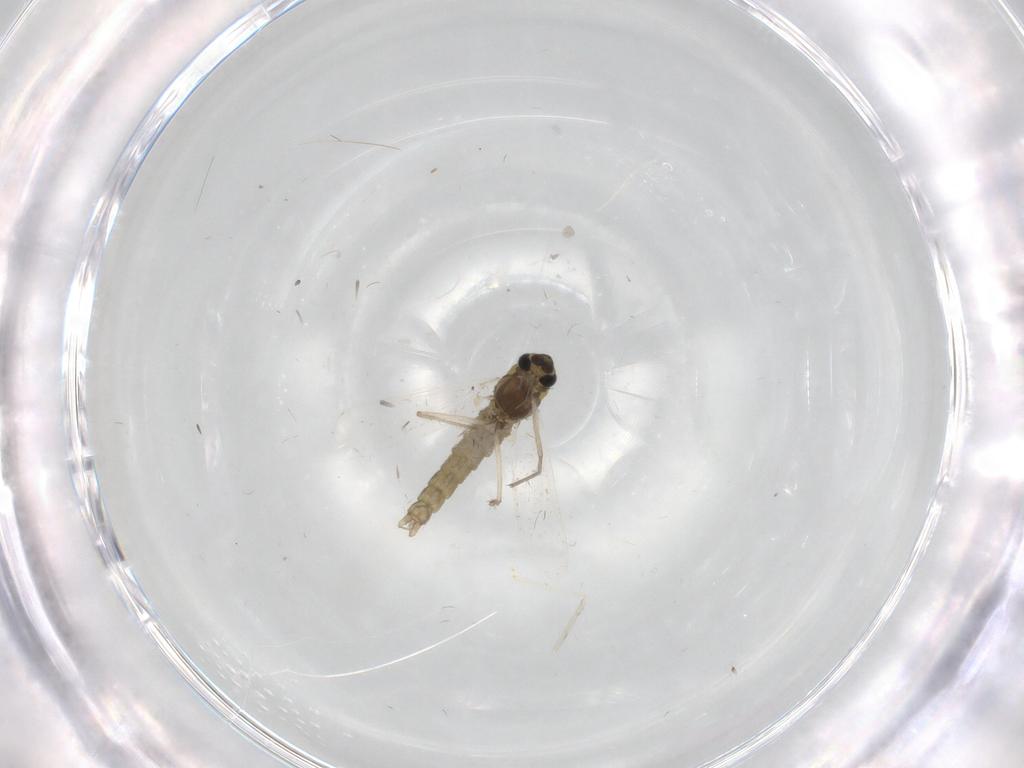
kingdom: Animalia
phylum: Arthropoda
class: Insecta
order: Diptera
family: Chironomidae
